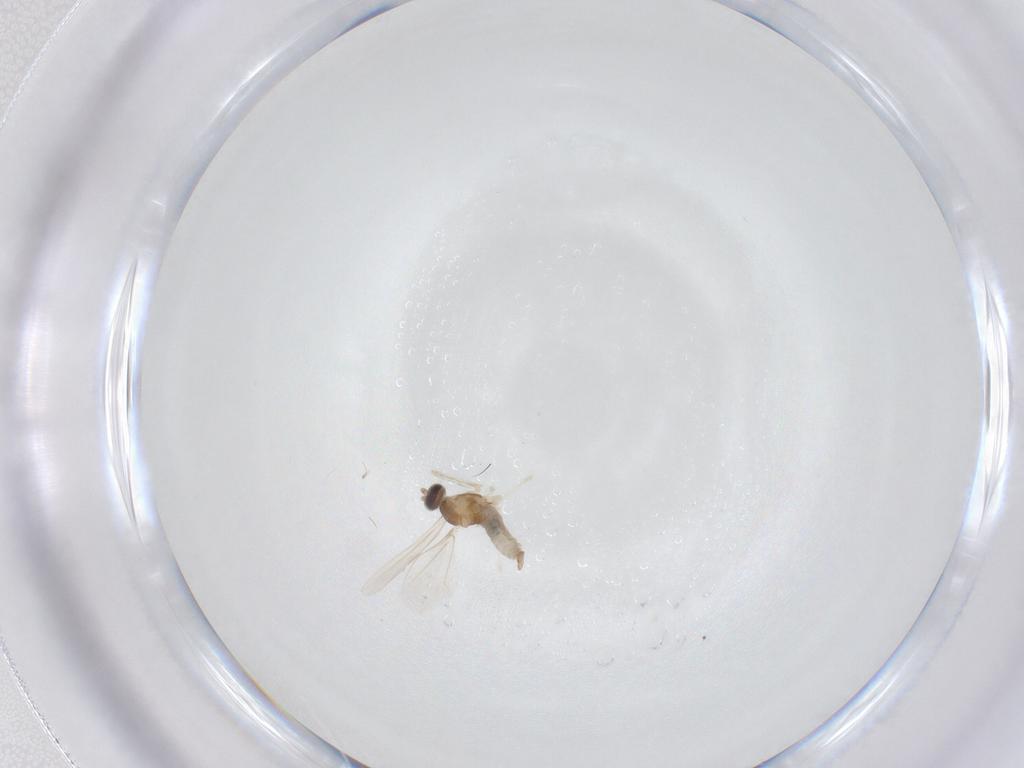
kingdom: Animalia
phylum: Arthropoda
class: Insecta
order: Diptera
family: Cecidomyiidae
